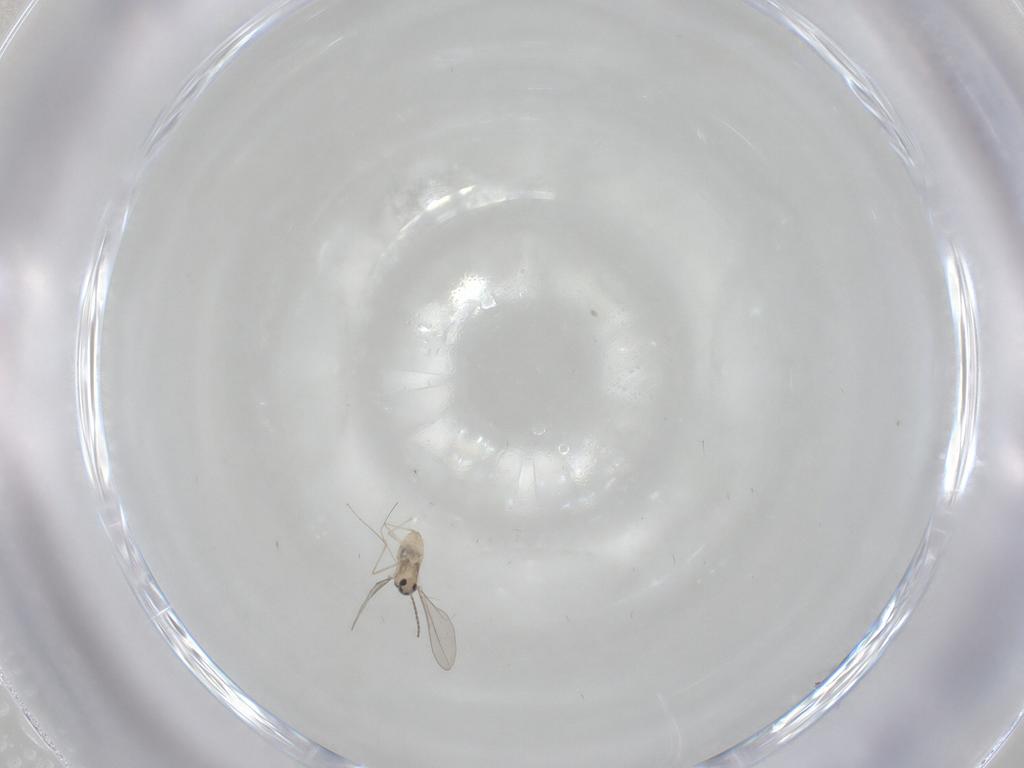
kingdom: Animalia
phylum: Arthropoda
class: Insecta
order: Diptera
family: Cecidomyiidae
